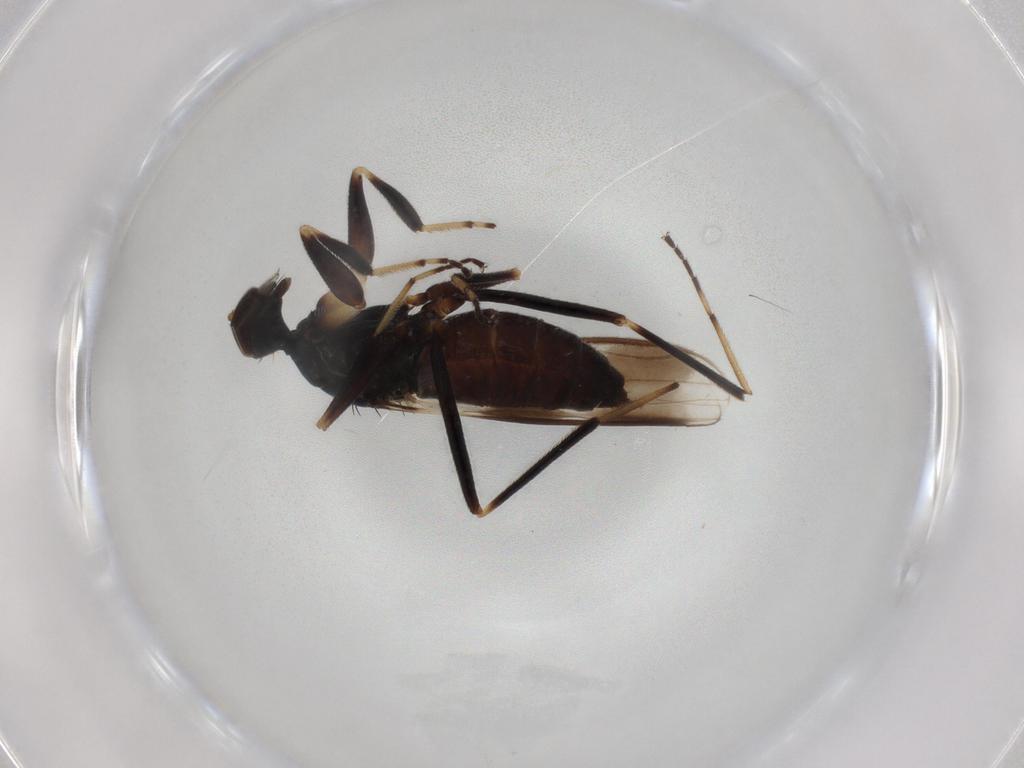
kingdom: Animalia
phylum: Arthropoda
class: Insecta
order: Diptera
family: Hybotidae
